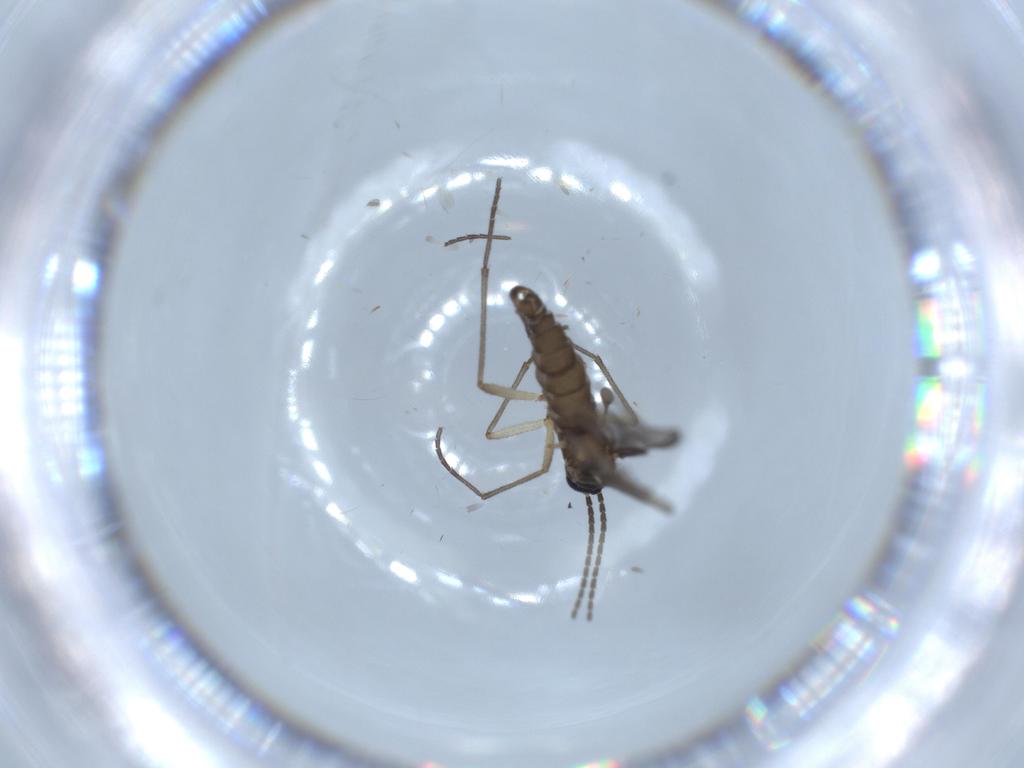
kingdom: Animalia
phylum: Arthropoda
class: Insecta
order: Diptera
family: Sciaridae
